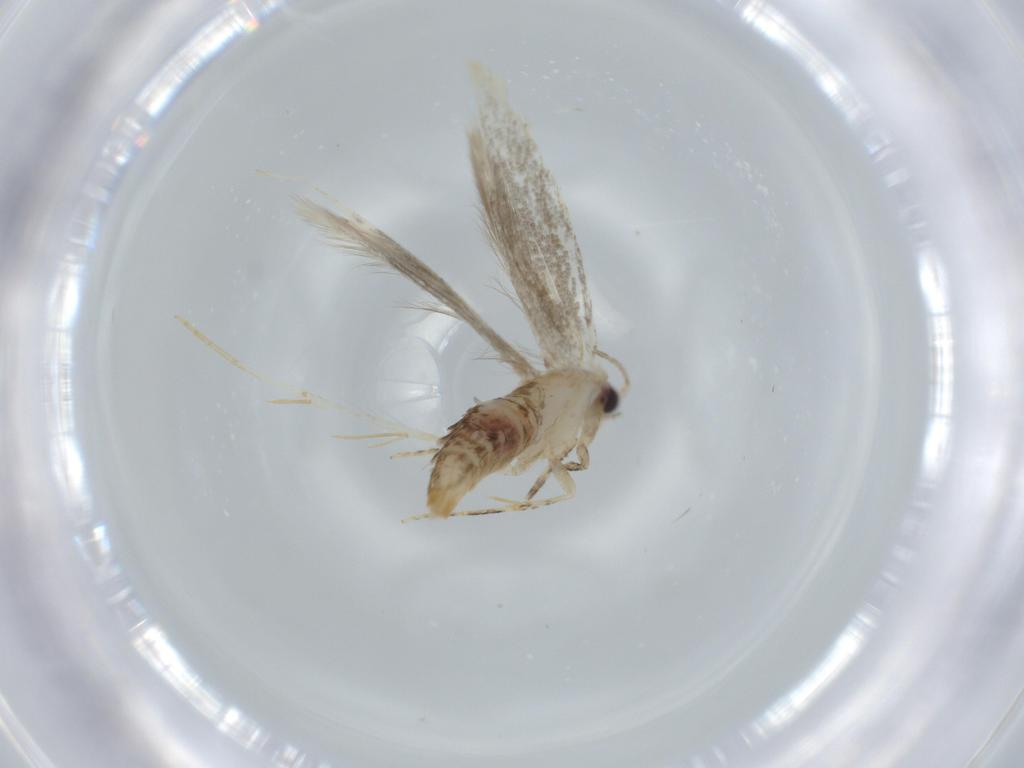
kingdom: Animalia
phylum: Arthropoda
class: Insecta
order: Lepidoptera
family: Tineidae
